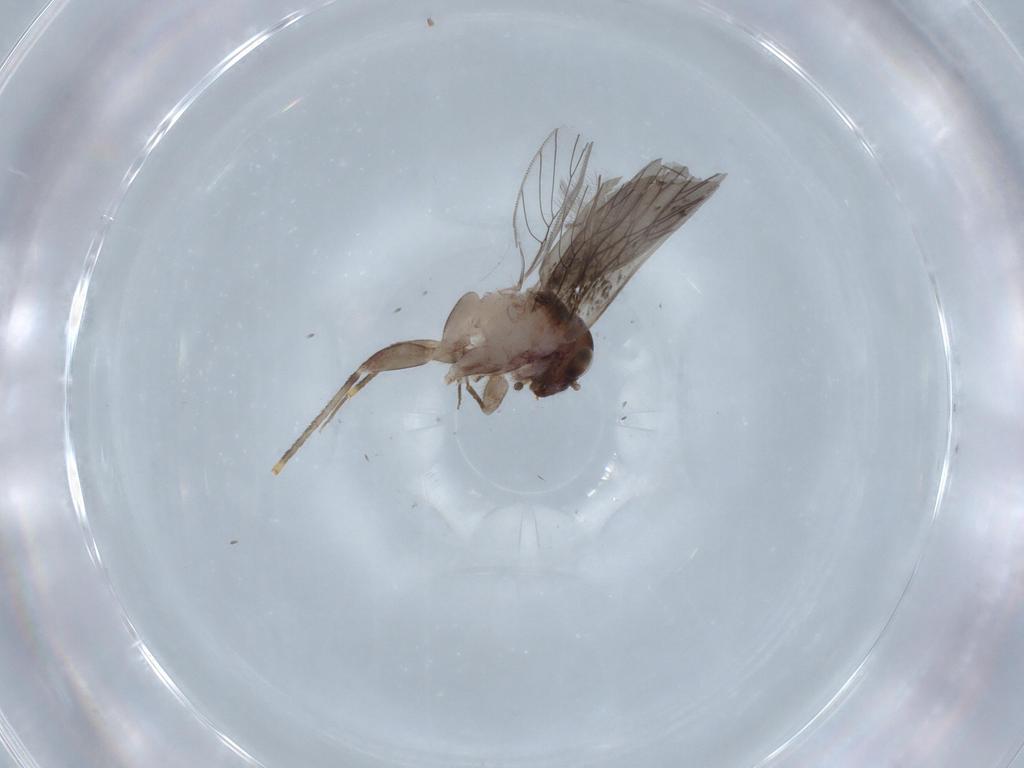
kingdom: Animalia
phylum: Arthropoda
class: Insecta
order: Psocodea
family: Lepidopsocidae
